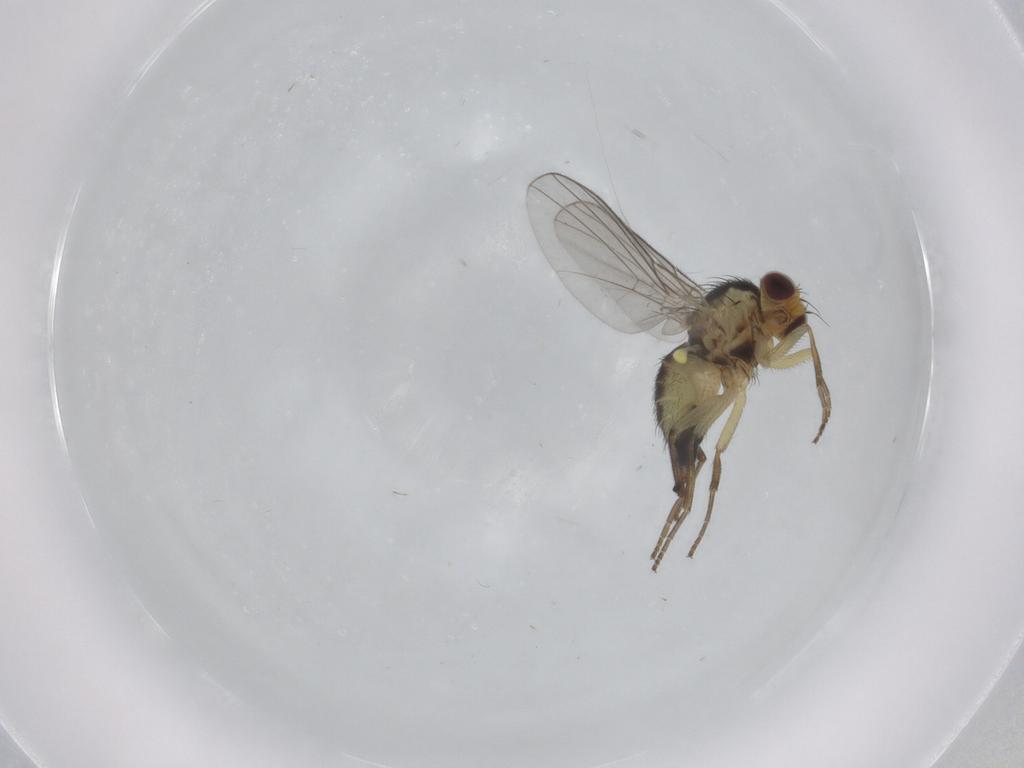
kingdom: Animalia
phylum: Arthropoda
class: Insecta
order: Diptera
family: Agromyzidae
